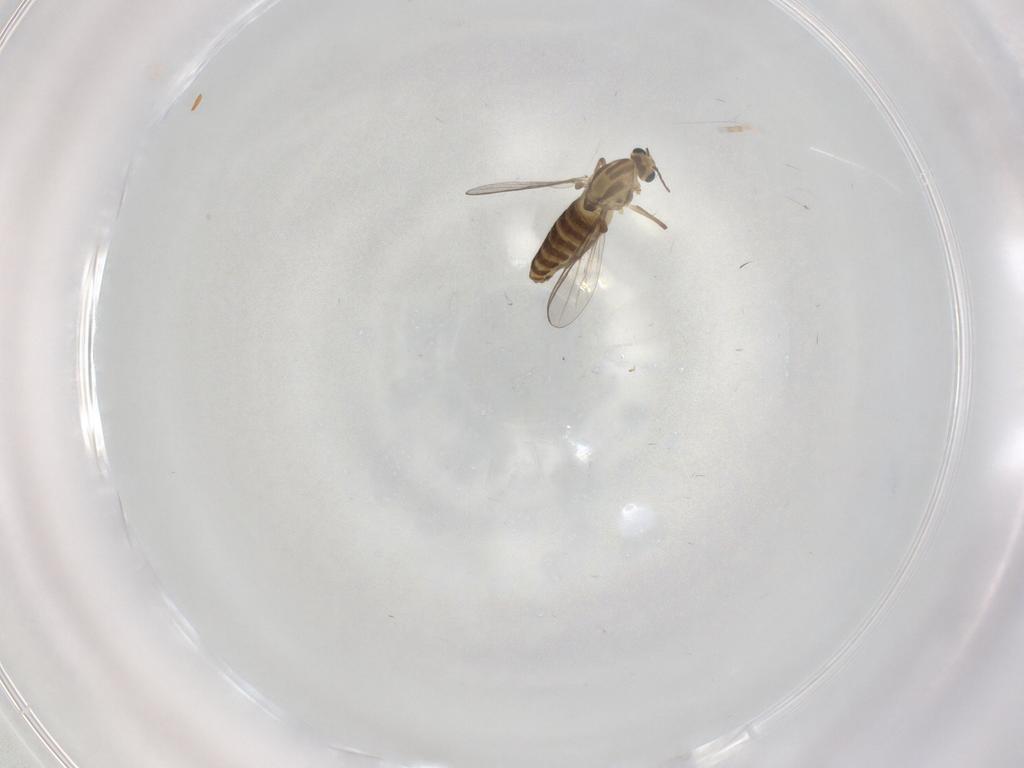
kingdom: Animalia
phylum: Arthropoda
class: Insecta
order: Diptera
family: Chironomidae
